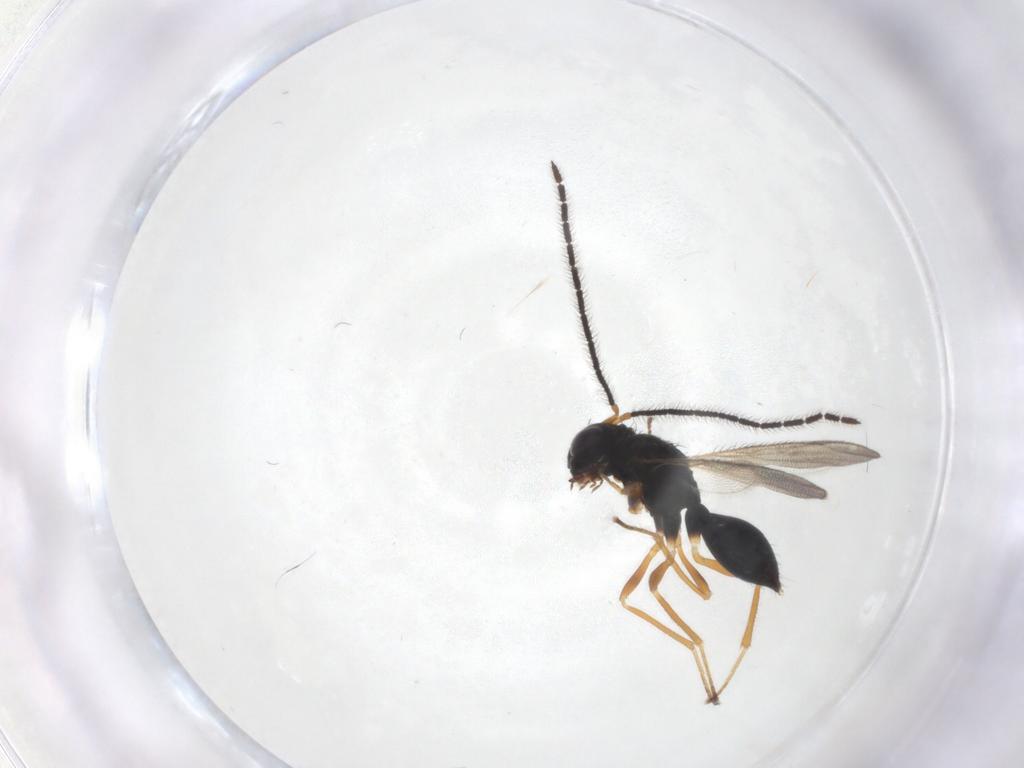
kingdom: Animalia
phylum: Arthropoda
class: Insecta
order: Hymenoptera
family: Diparidae
